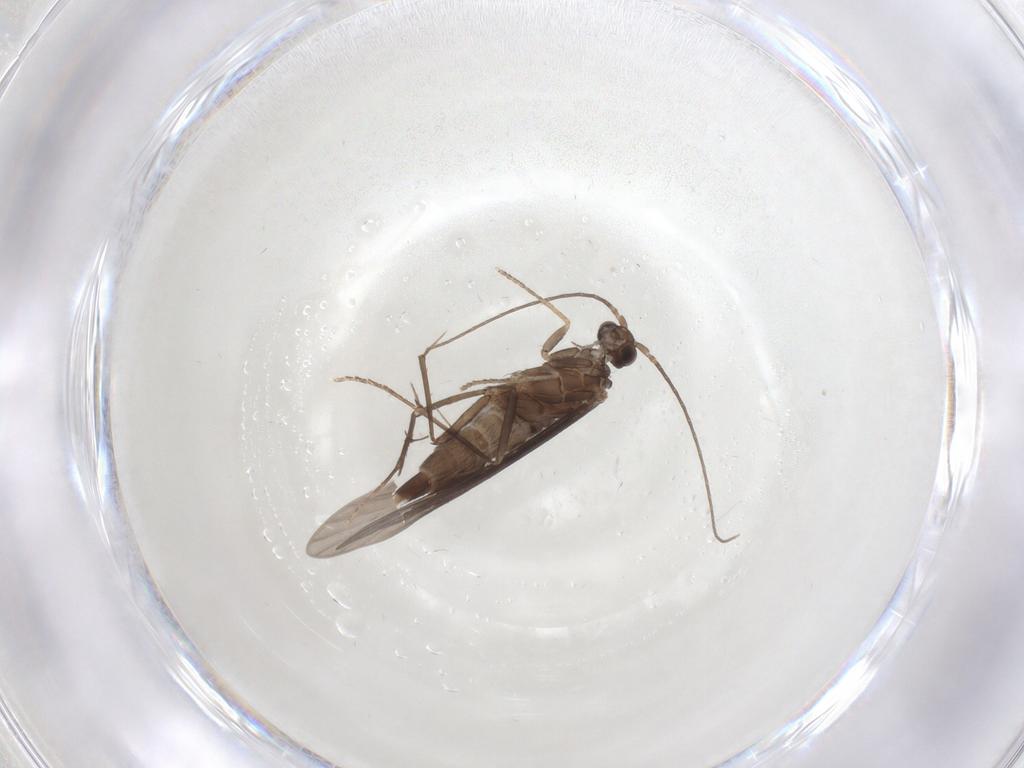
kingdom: Animalia
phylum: Arthropoda
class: Insecta
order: Trichoptera
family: Xiphocentronidae
